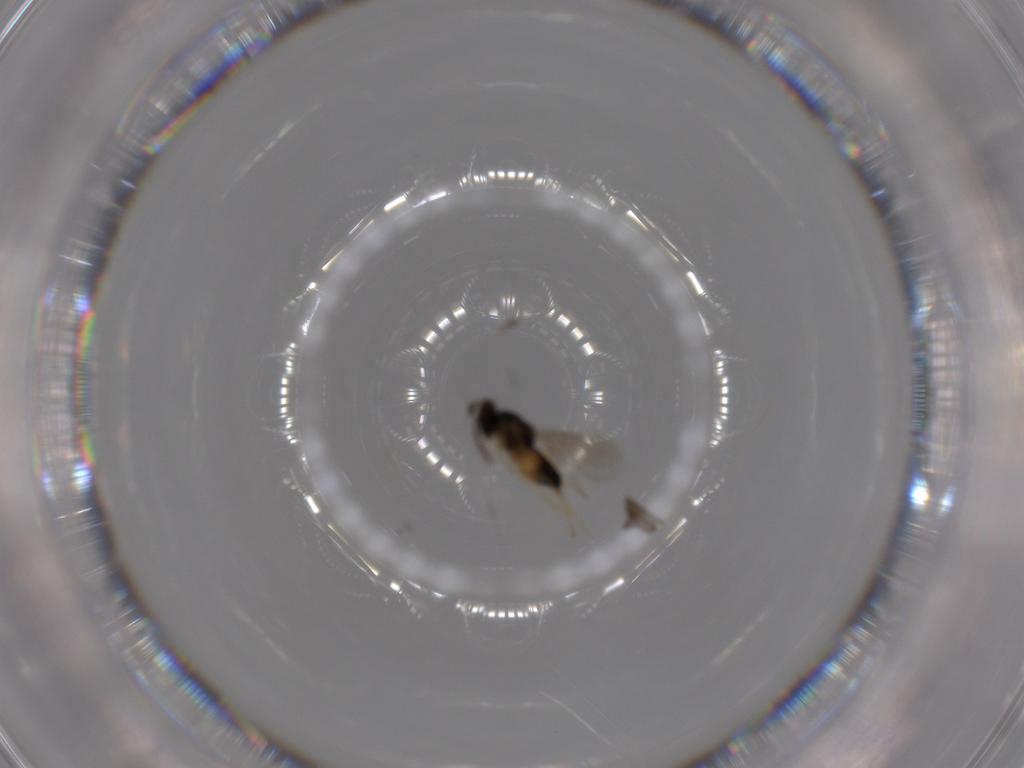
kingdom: Animalia
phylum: Arthropoda
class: Insecta
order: Hymenoptera
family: Eulophidae
